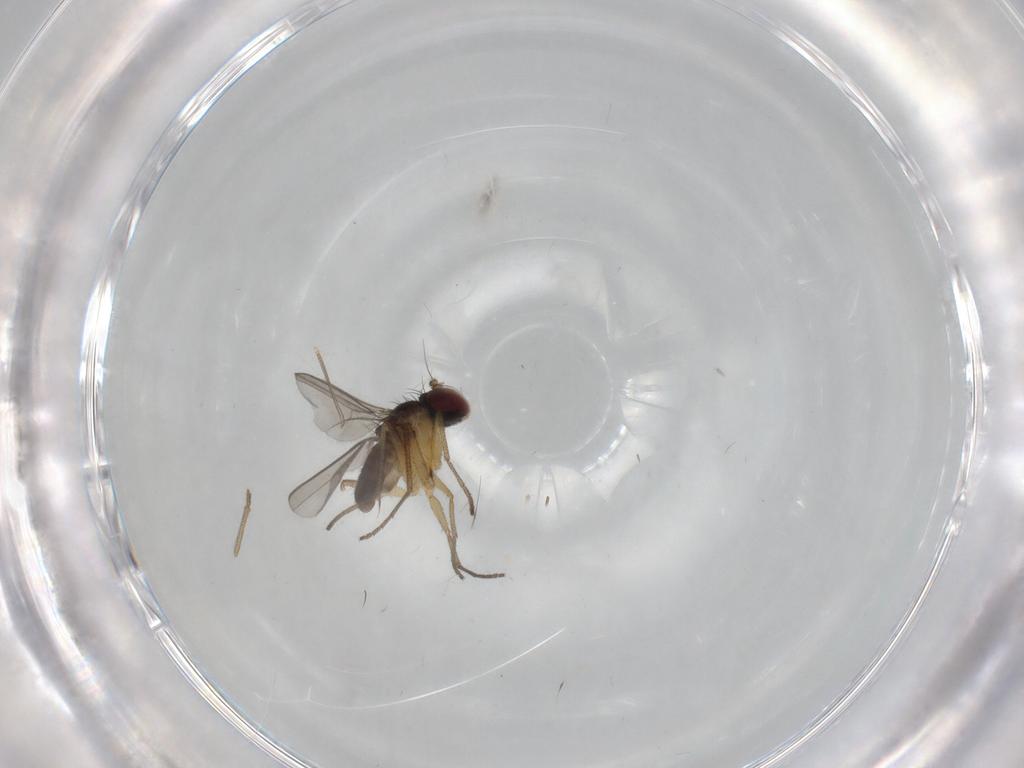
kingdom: Animalia
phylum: Arthropoda
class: Insecta
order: Diptera
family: Dolichopodidae
